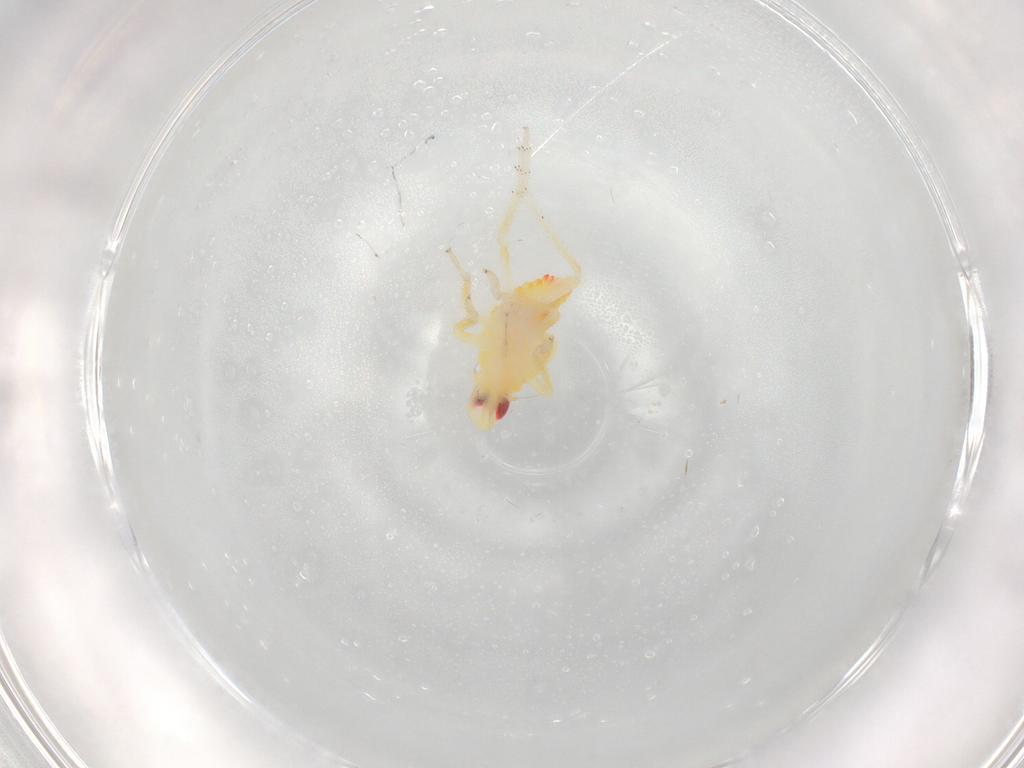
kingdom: Animalia
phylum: Arthropoda
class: Insecta
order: Hemiptera
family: Tropiduchidae
